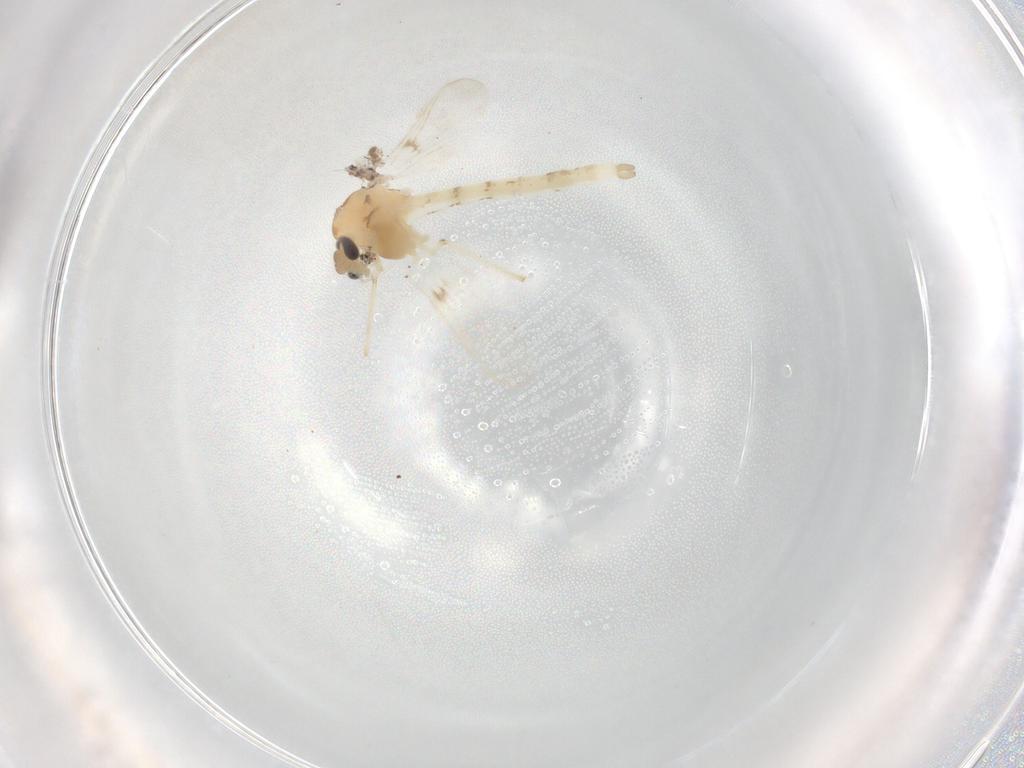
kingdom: Animalia
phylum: Arthropoda
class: Insecta
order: Diptera
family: Chironomidae
